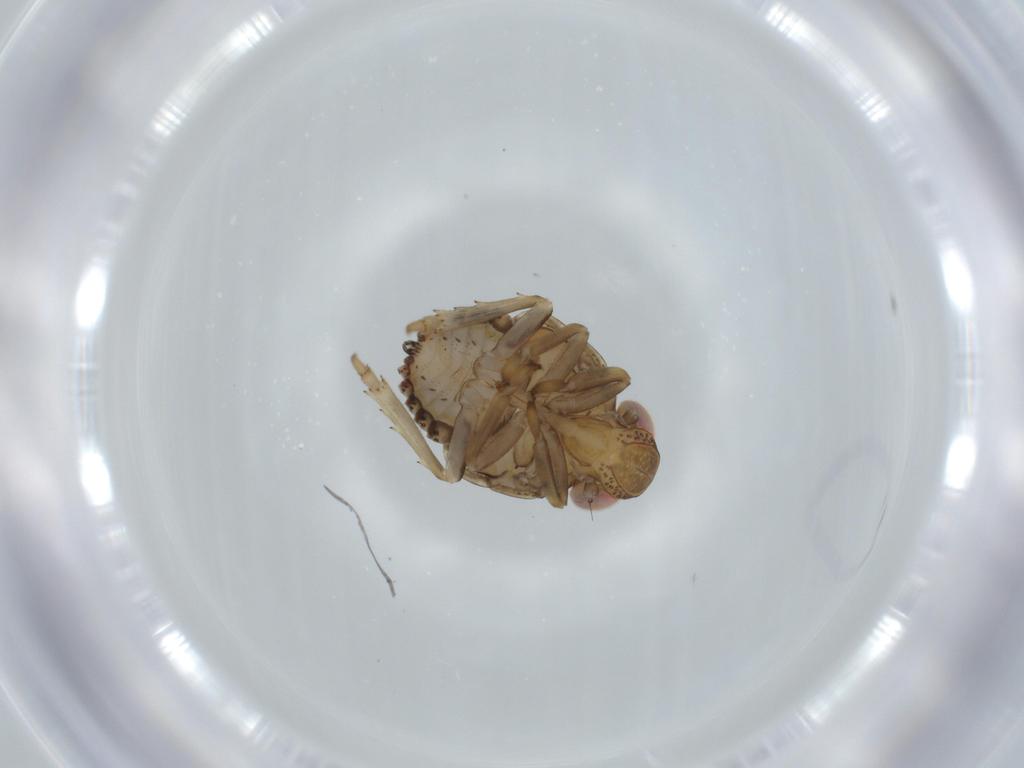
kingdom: Animalia
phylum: Arthropoda
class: Insecta
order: Hemiptera
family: Issidae
